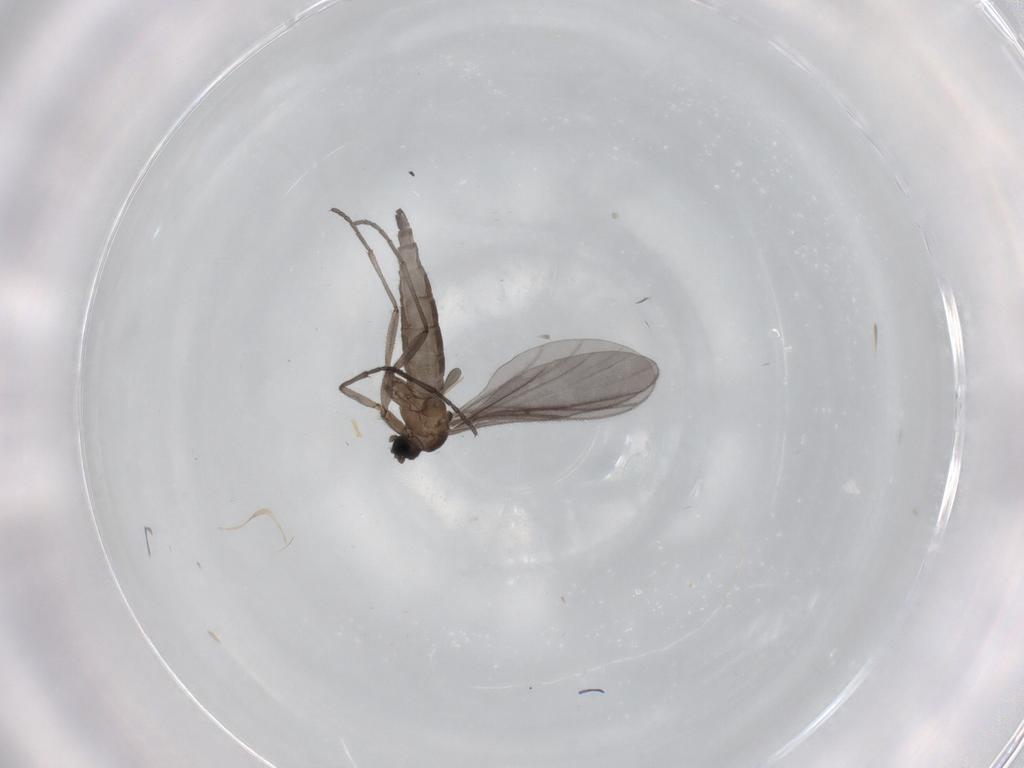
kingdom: Animalia
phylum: Arthropoda
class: Insecta
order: Diptera
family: Sciaridae
